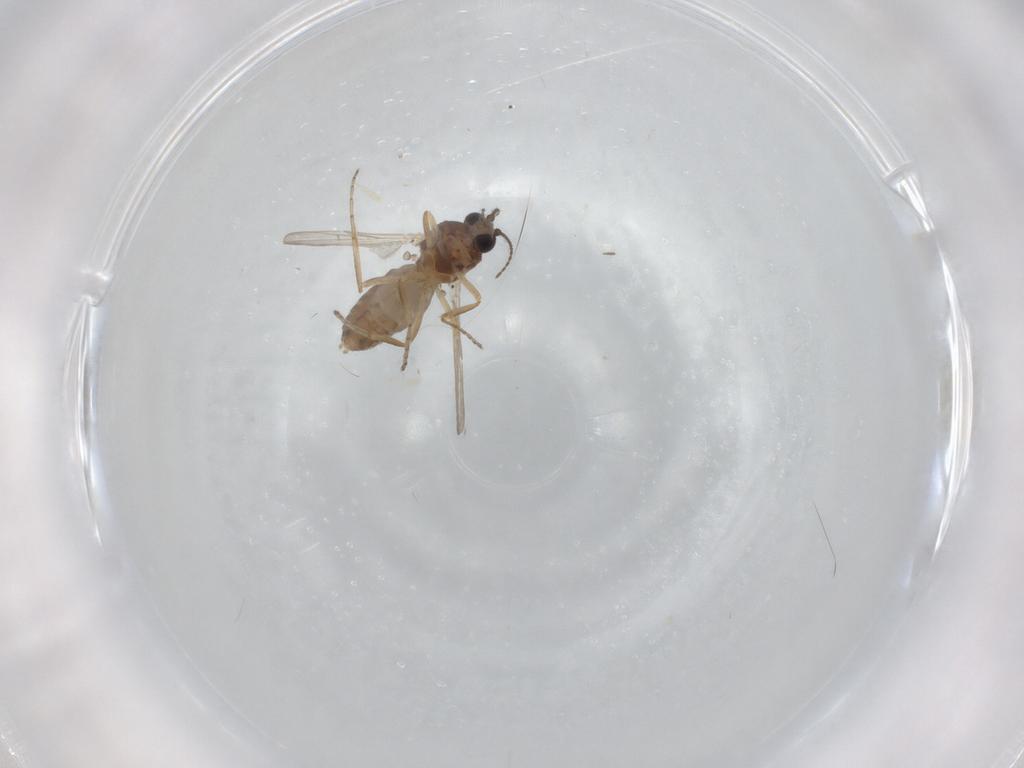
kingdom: Animalia
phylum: Arthropoda
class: Insecta
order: Diptera
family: Ceratopogonidae
